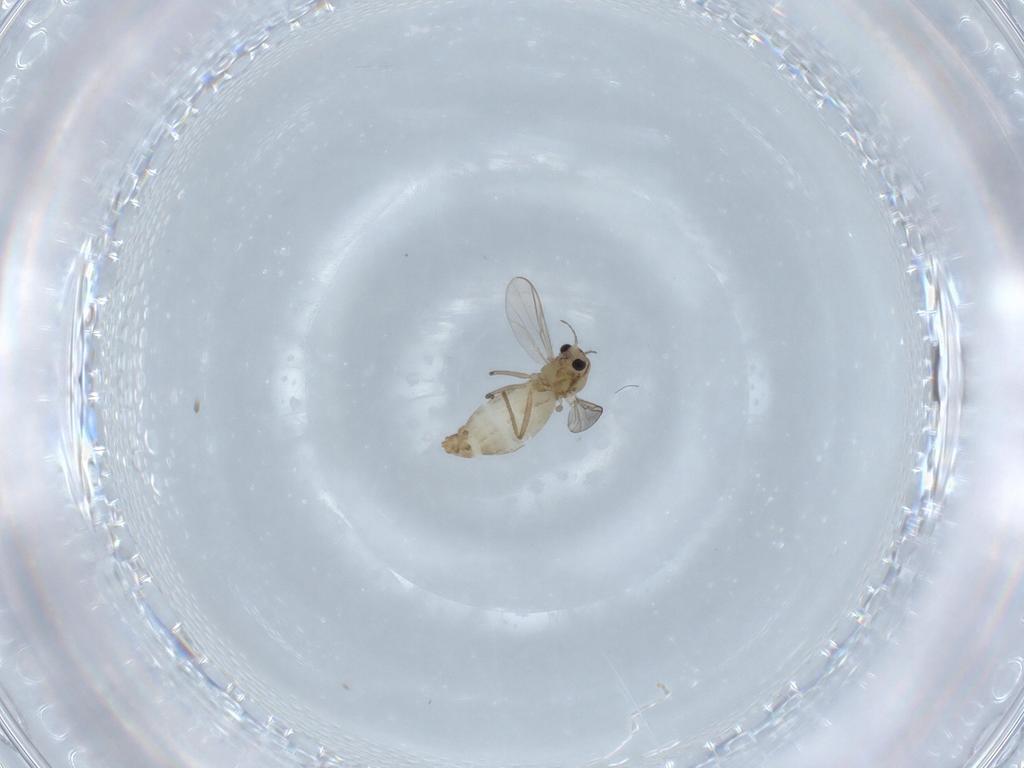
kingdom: Animalia
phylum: Arthropoda
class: Insecta
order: Diptera
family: Chironomidae
